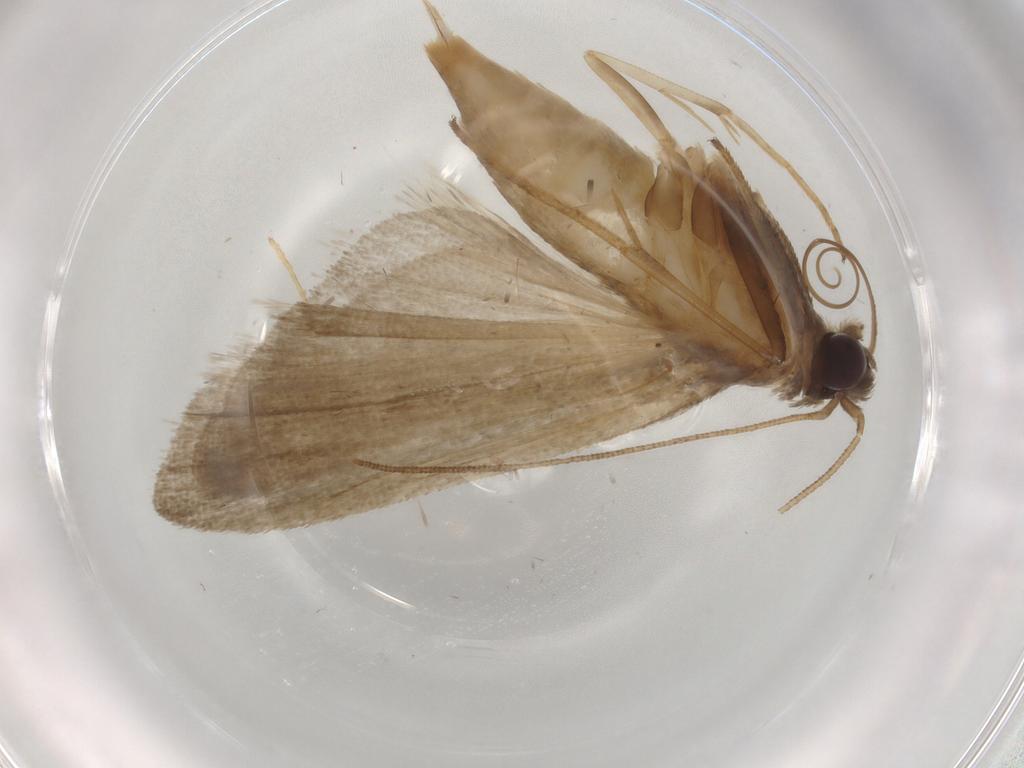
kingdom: Animalia
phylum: Arthropoda
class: Insecta
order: Lepidoptera
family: Noctuidae
